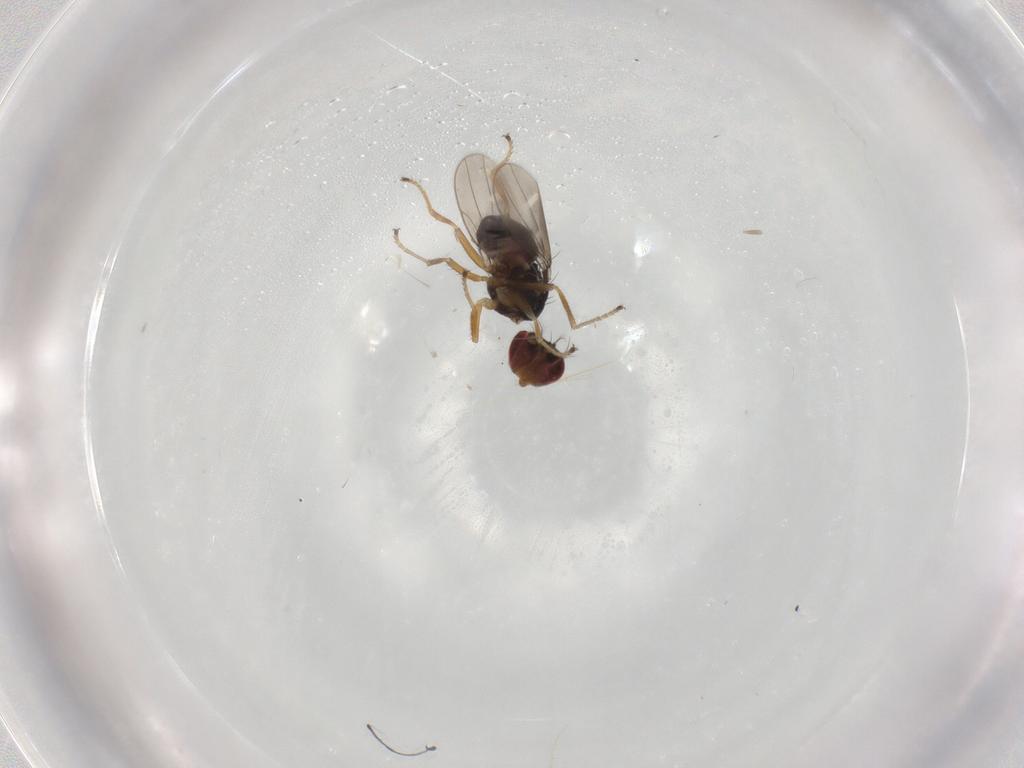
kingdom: Animalia
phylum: Arthropoda
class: Insecta
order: Diptera
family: Ephydridae
